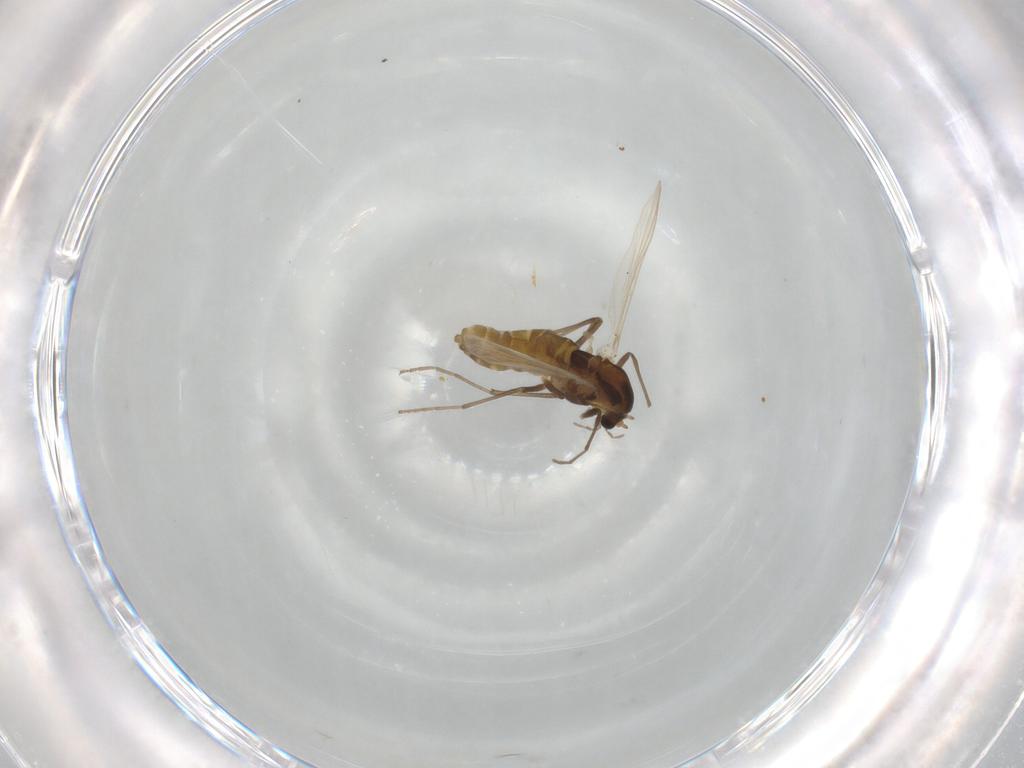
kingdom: Animalia
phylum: Arthropoda
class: Insecta
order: Diptera
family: Chironomidae
